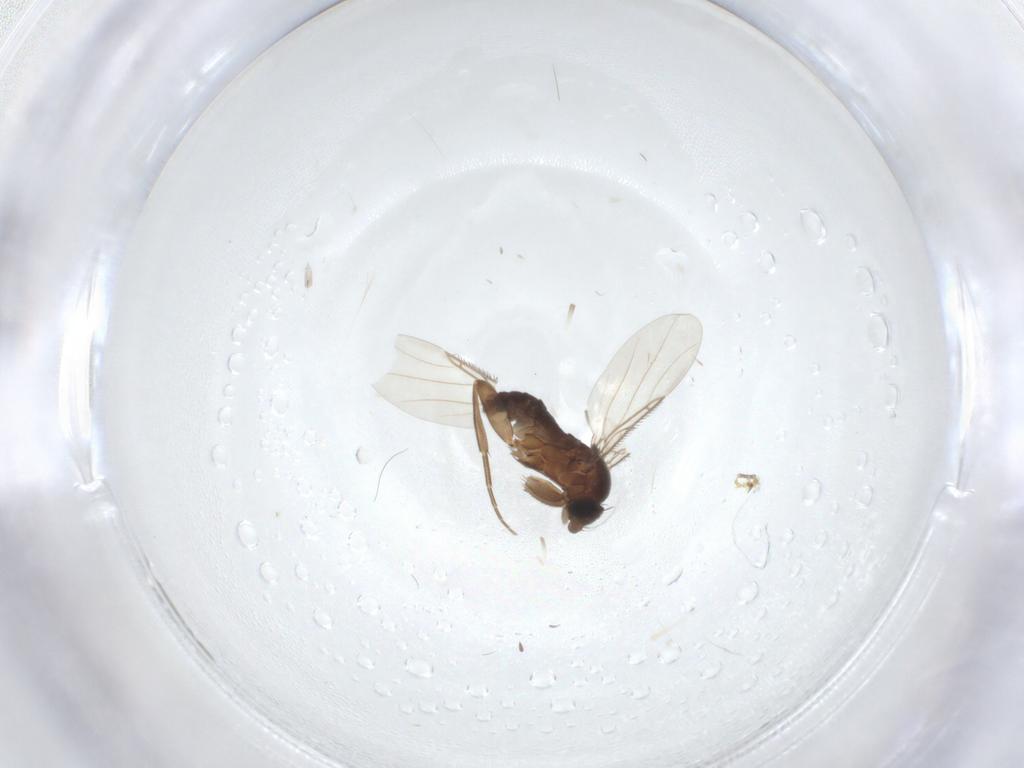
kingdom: Animalia
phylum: Arthropoda
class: Insecta
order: Diptera
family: Phoridae
